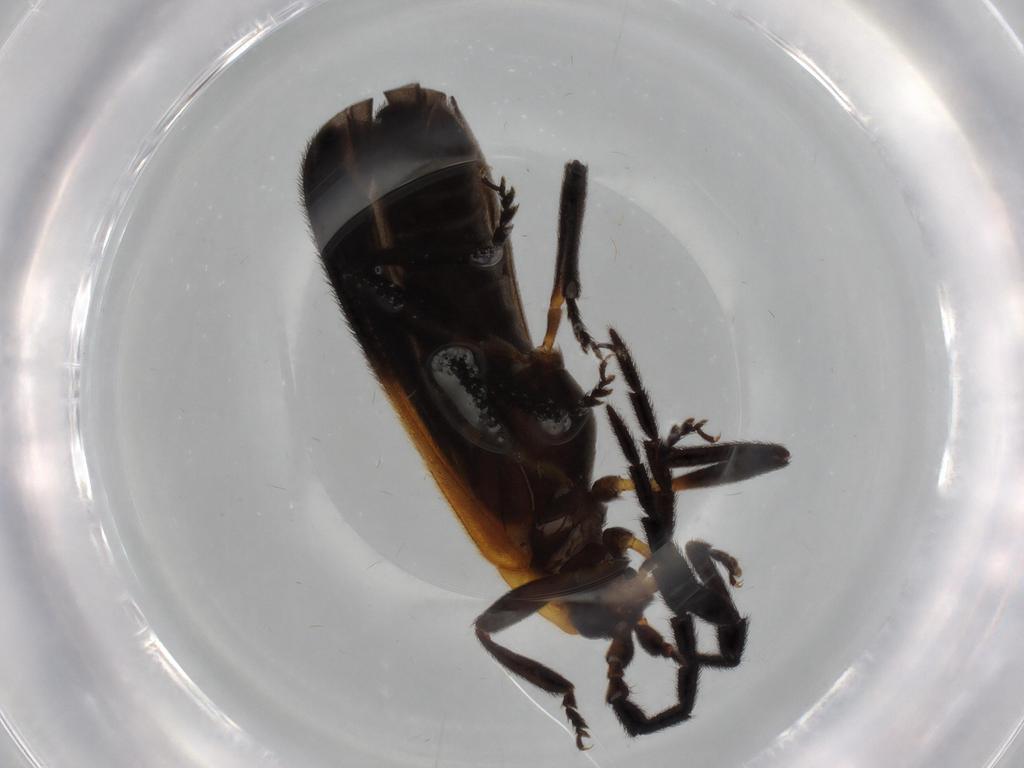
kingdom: Animalia
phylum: Arthropoda
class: Insecta
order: Coleoptera
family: Lycidae
